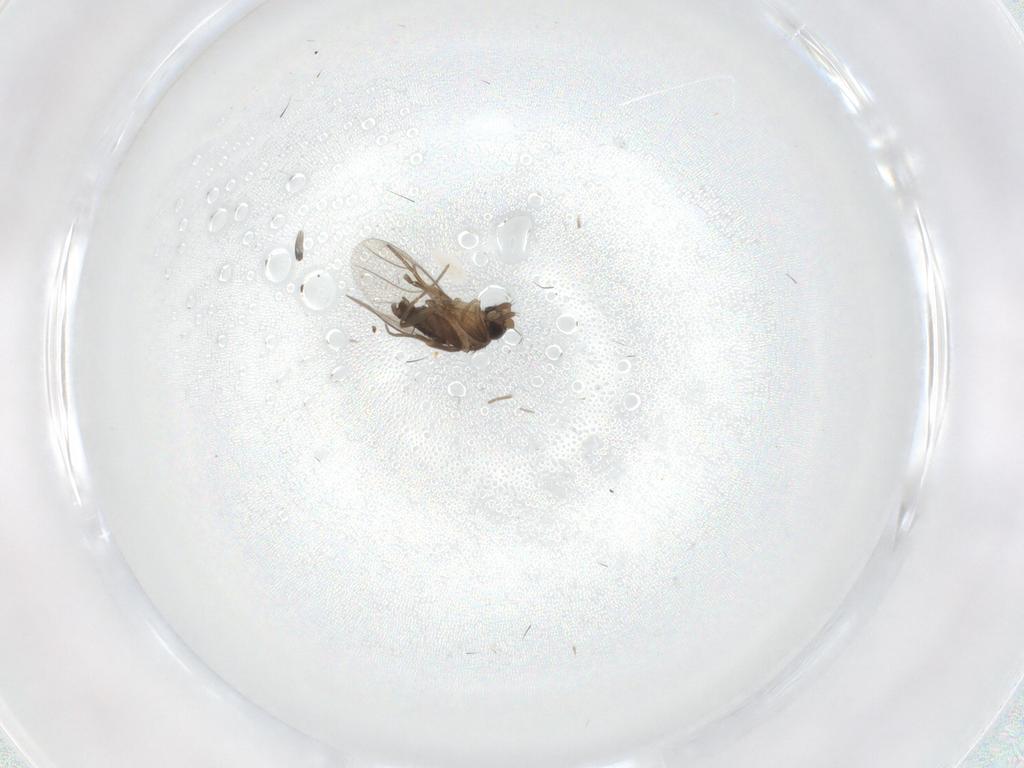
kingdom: Animalia
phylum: Arthropoda
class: Insecta
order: Diptera
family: Phoridae
